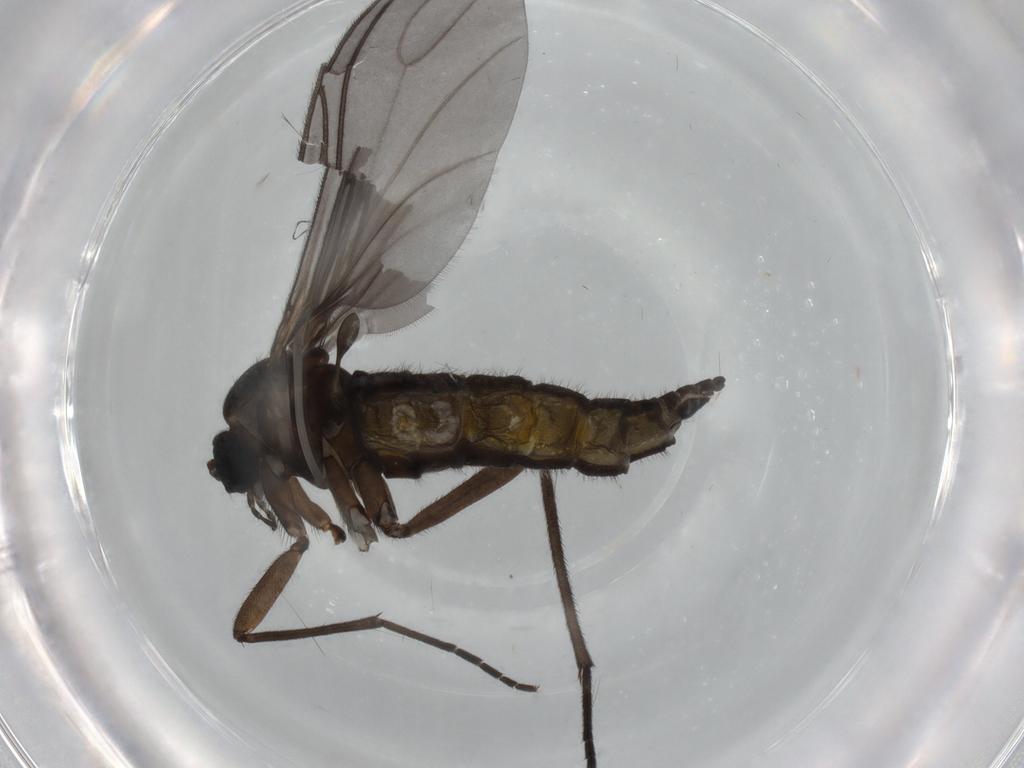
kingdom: Animalia
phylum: Arthropoda
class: Insecta
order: Diptera
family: Sciaridae
